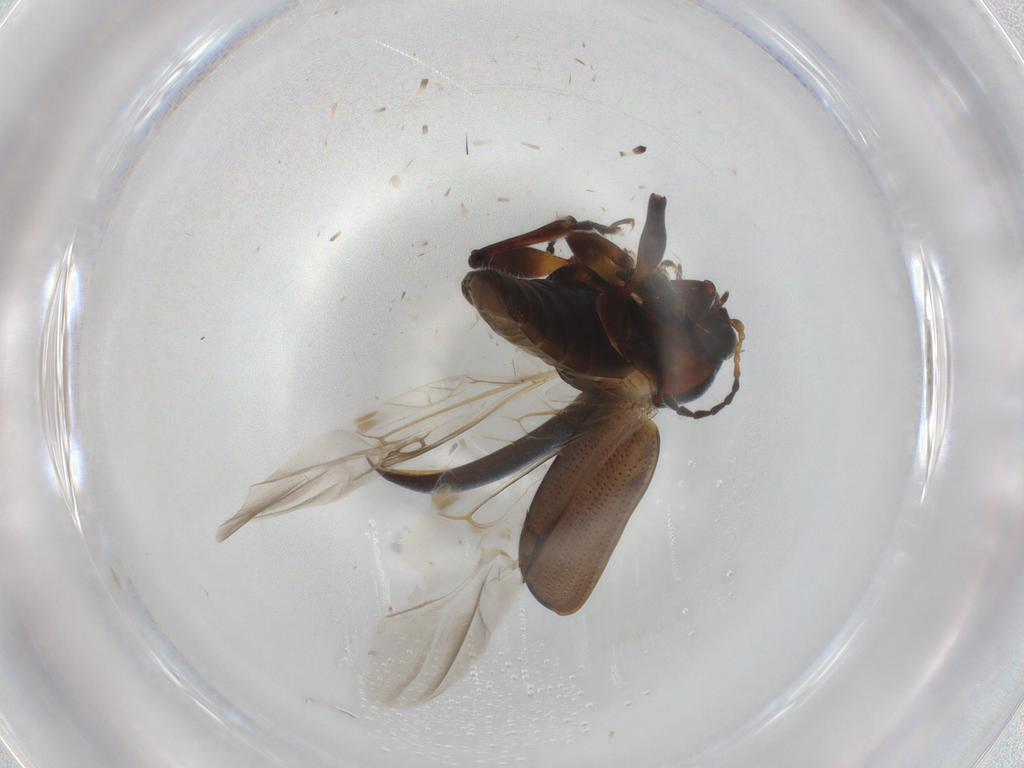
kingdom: Animalia
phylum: Arthropoda
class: Insecta
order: Coleoptera
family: Chrysomelidae
